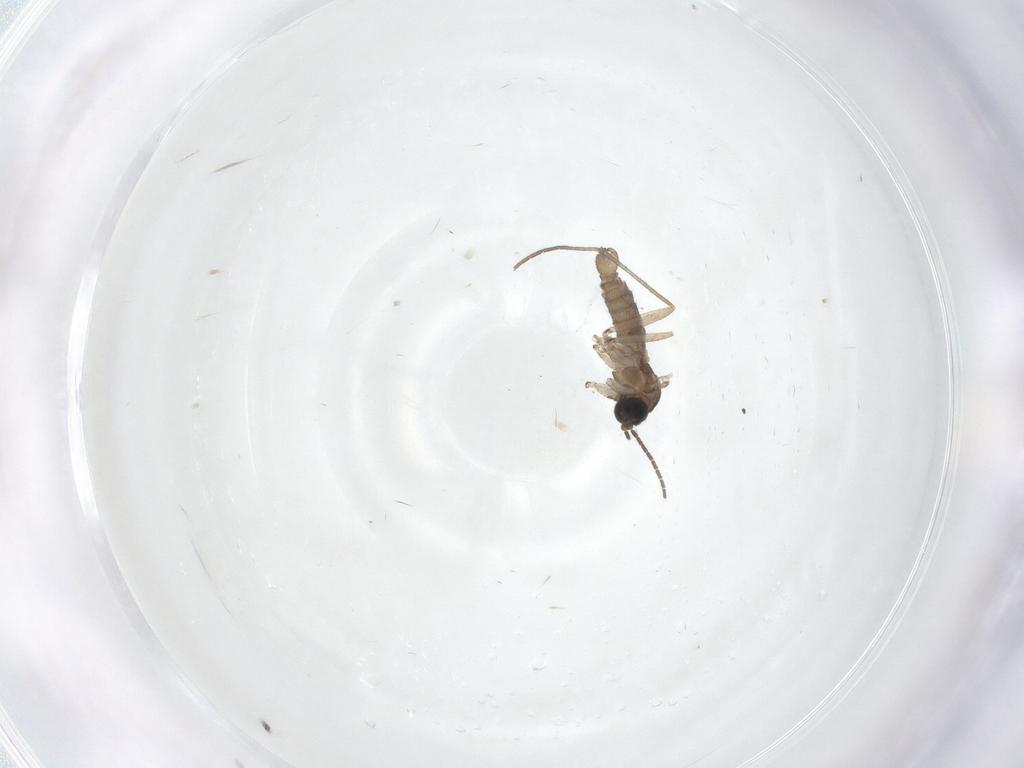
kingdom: Animalia
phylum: Arthropoda
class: Insecta
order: Diptera
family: Sciaridae
